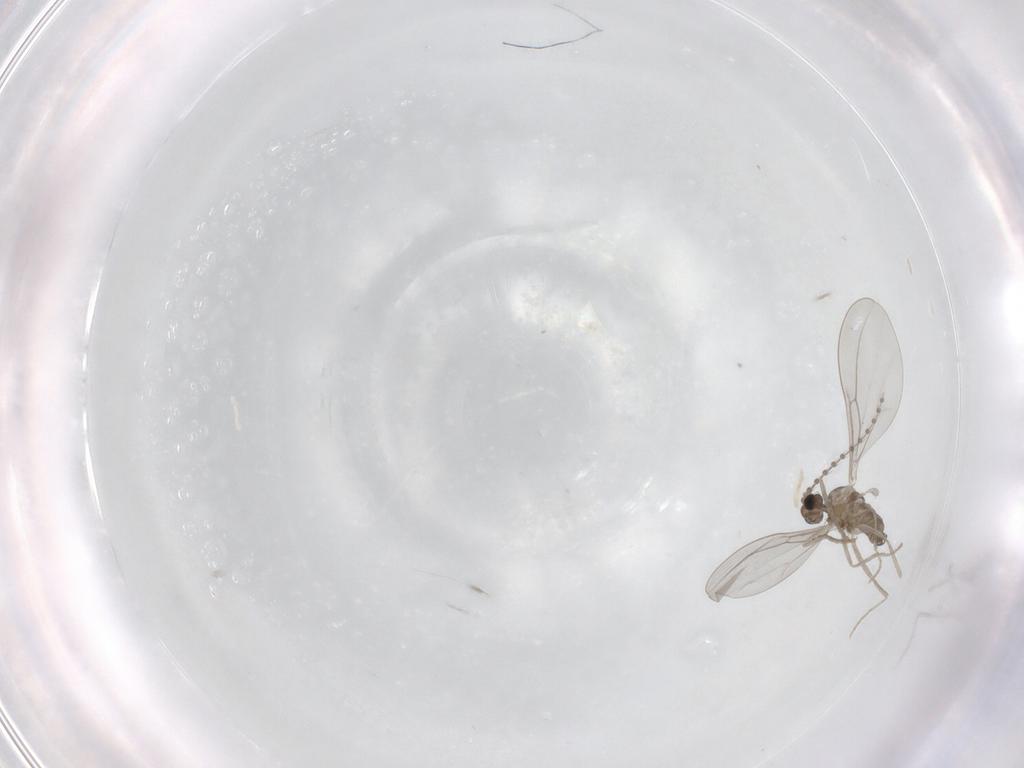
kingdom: Animalia
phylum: Arthropoda
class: Insecta
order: Diptera
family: Cecidomyiidae
